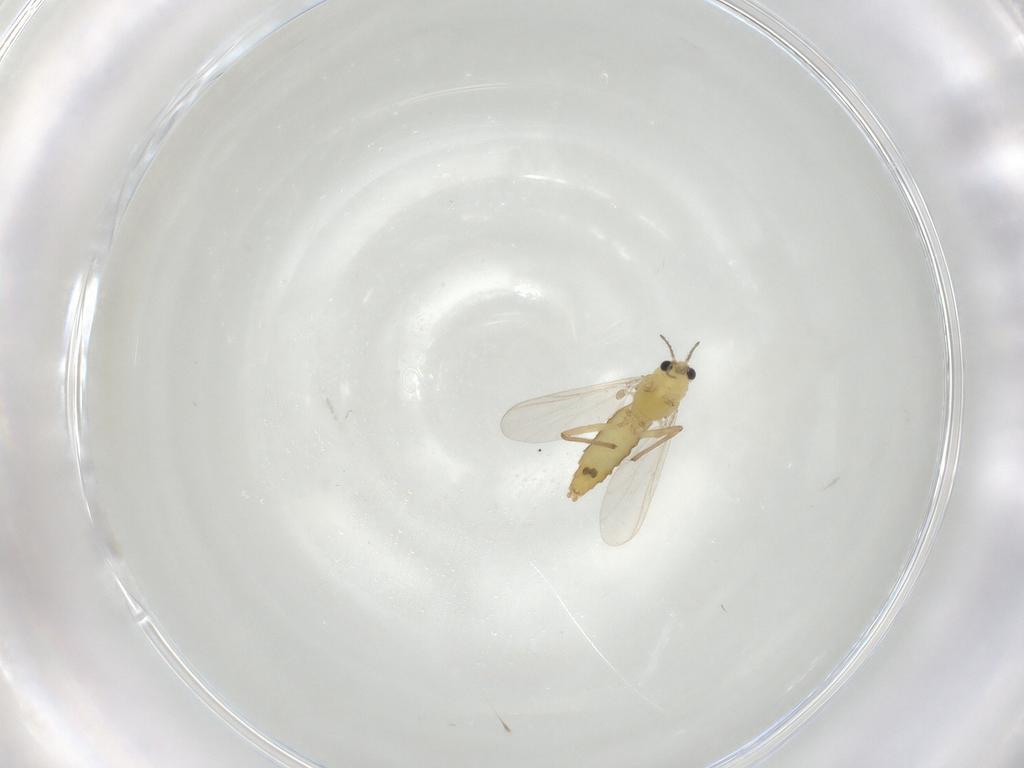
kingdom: Animalia
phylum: Arthropoda
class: Insecta
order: Diptera
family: Chironomidae
